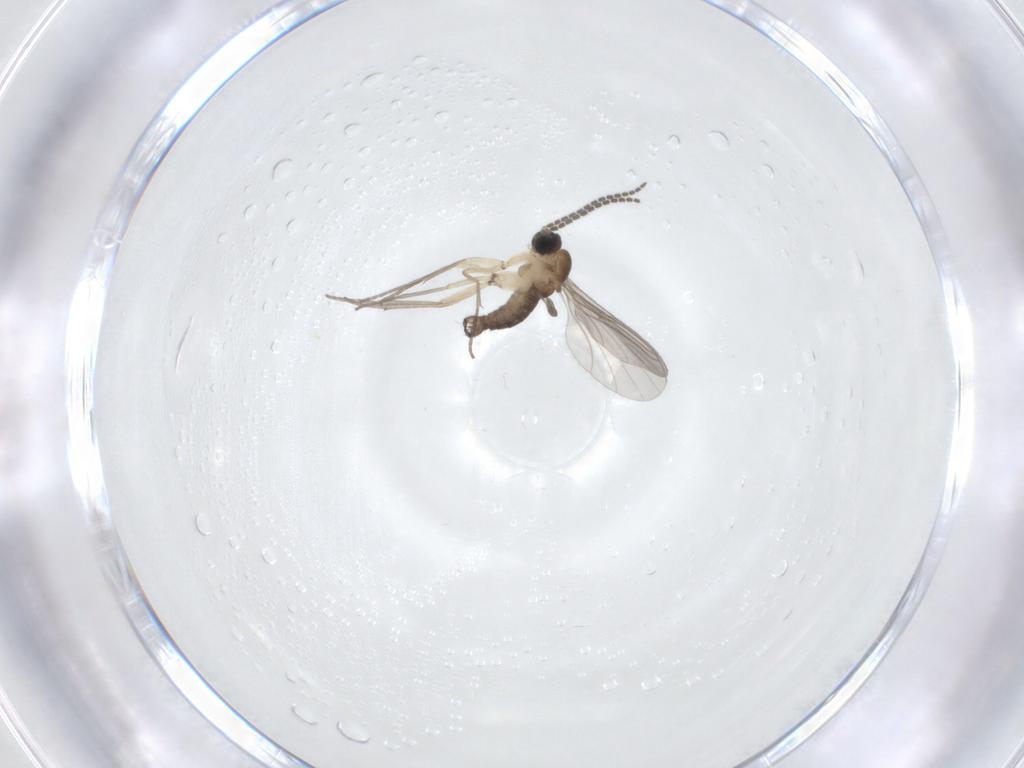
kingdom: Animalia
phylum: Arthropoda
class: Insecta
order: Diptera
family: Sciaridae
